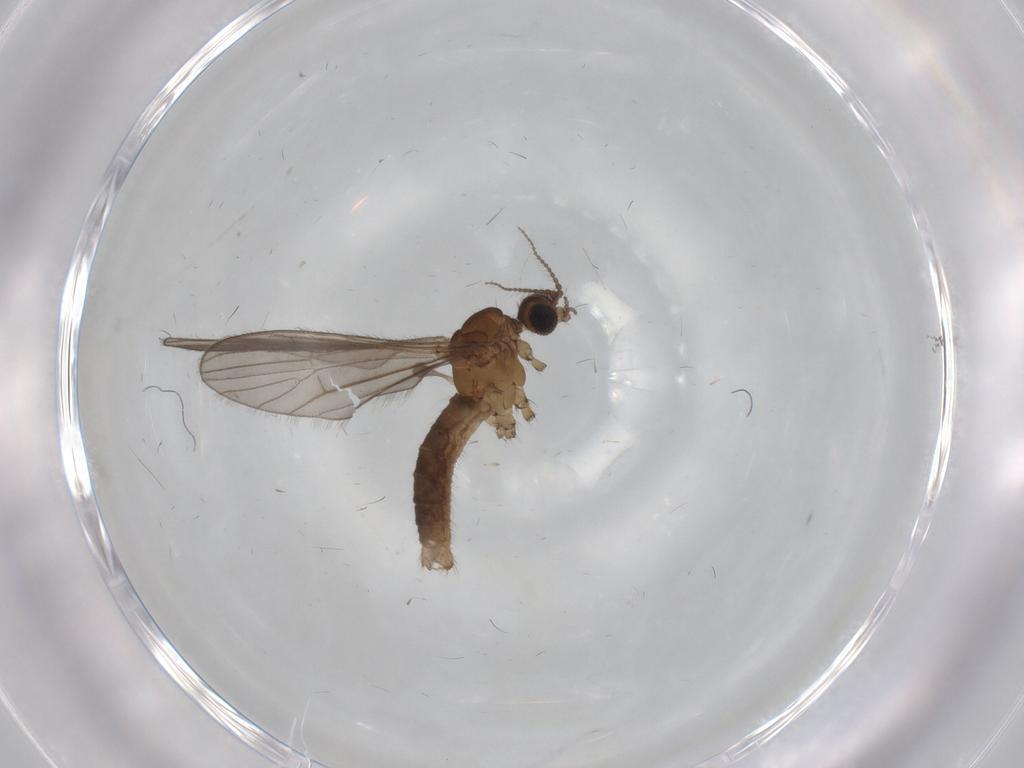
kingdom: Animalia
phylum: Arthropoda
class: Insecta
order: Diptera
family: Limoniidae
